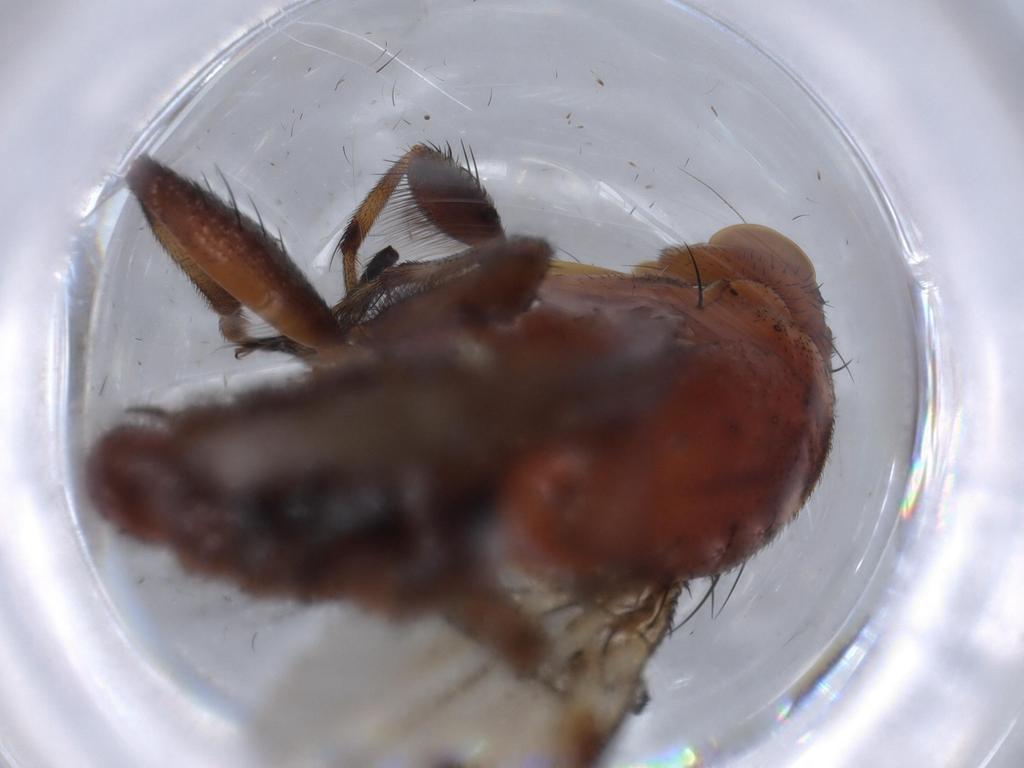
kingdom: Animalia
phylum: Arthropoda
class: Insecta
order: Diptera
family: Heleomyzidae
